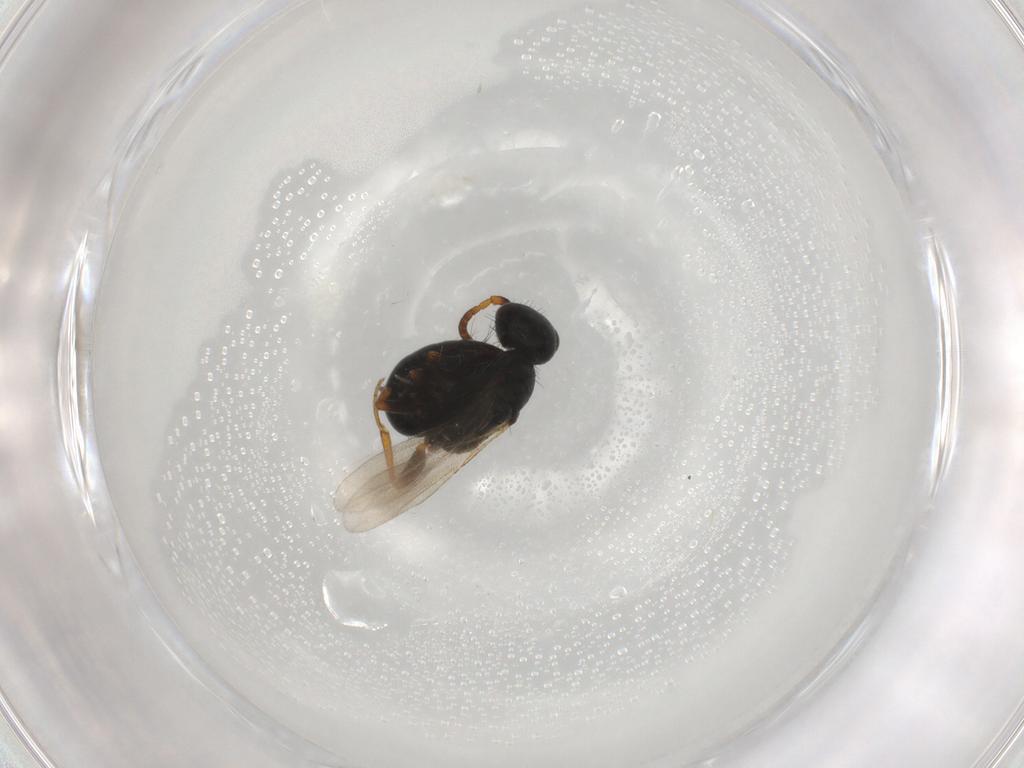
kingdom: Animalia
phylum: Arthropoda
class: Insecta
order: Hymenoptera
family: Bethylidae
